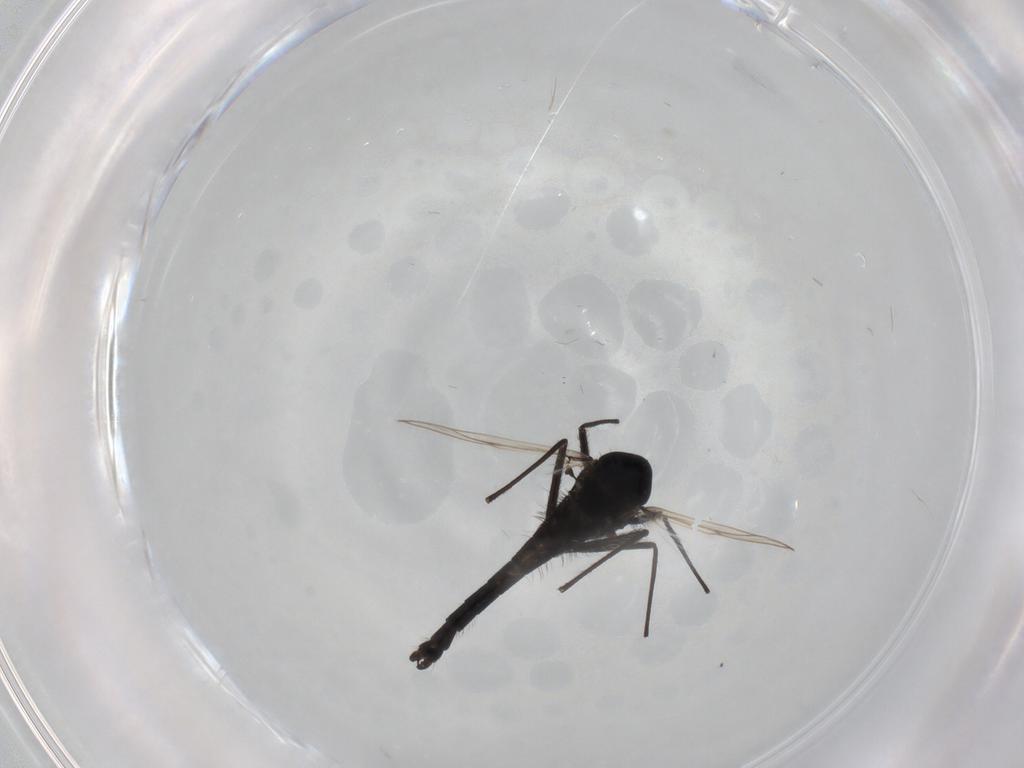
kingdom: Animalia
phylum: Arthropoda
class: Insecta
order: Diptera
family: Chironomidae
